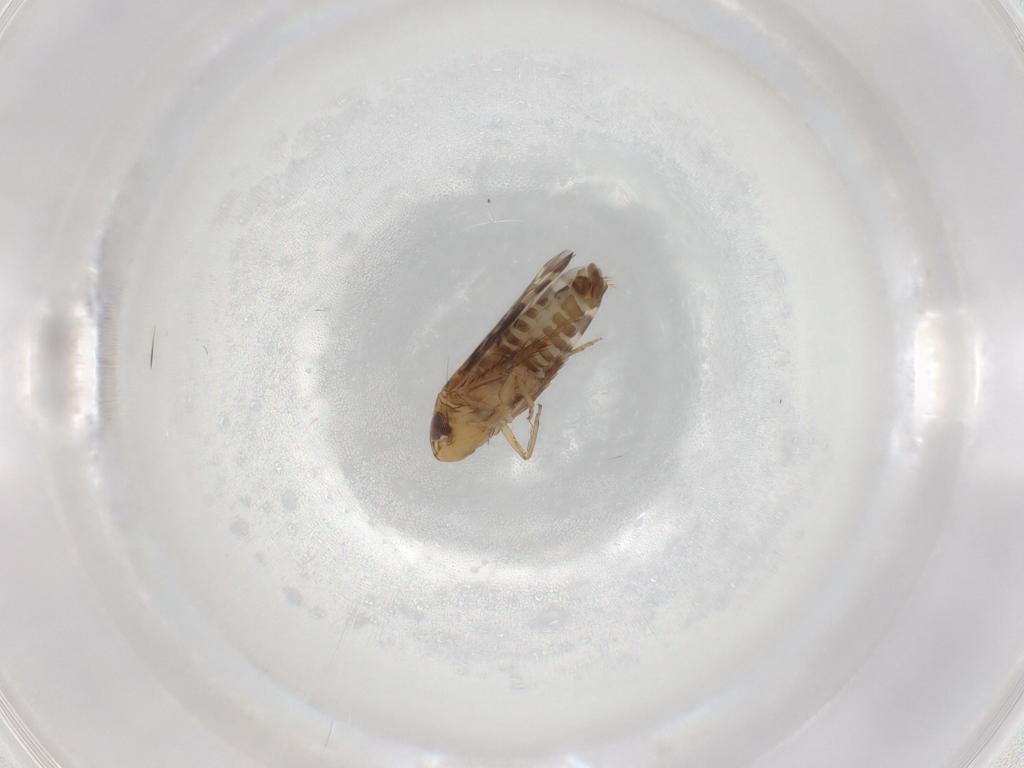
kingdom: Animalia
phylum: Arthropoda
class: Insecta
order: Hemiptera
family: Cicadellidae
